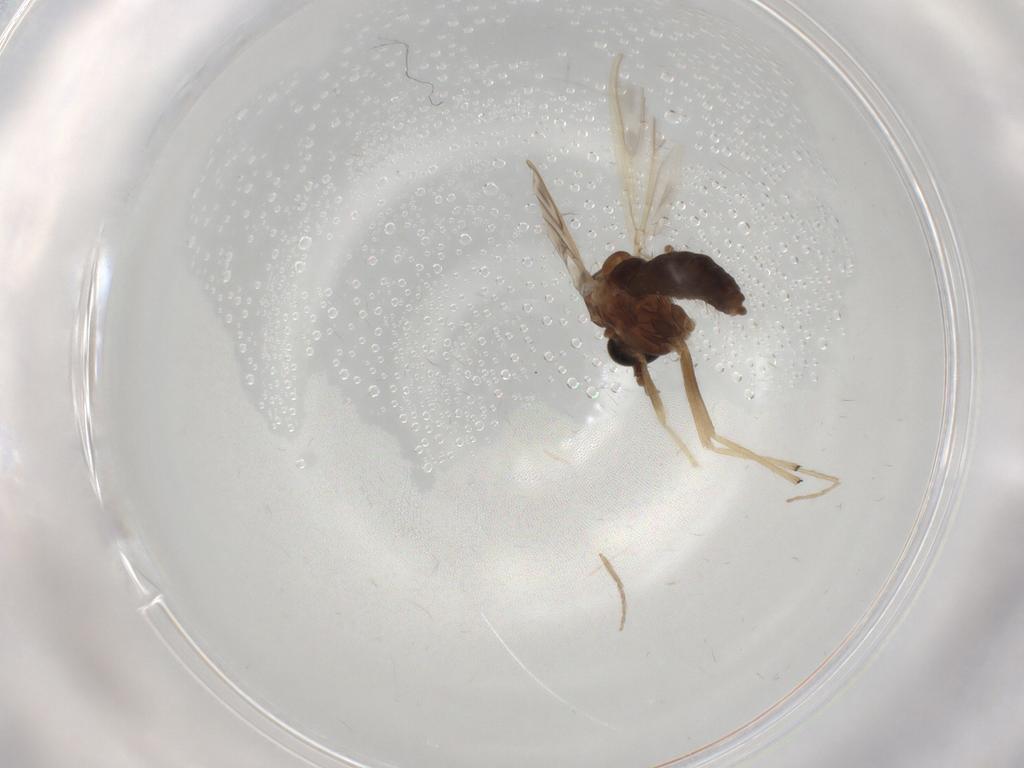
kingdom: Animalia
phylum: Arthropoda
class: Insecta
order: Diptera
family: Chironomidae
